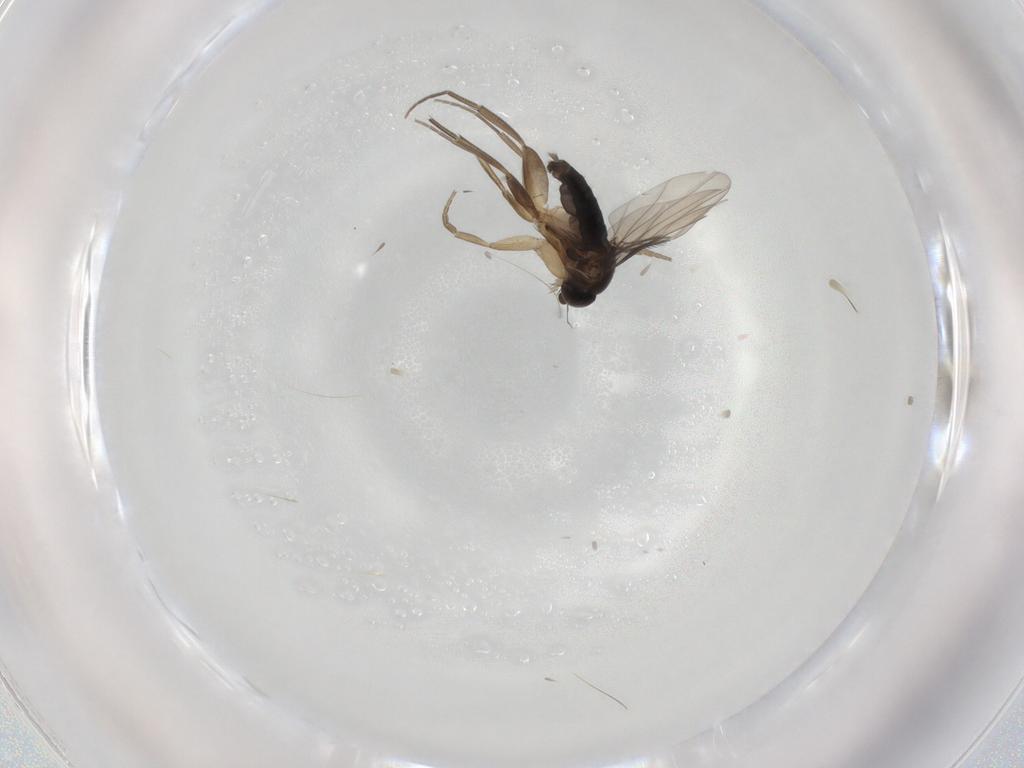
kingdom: Animalia
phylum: Arthropoda
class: Insecta
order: Diptera
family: Phoridae
